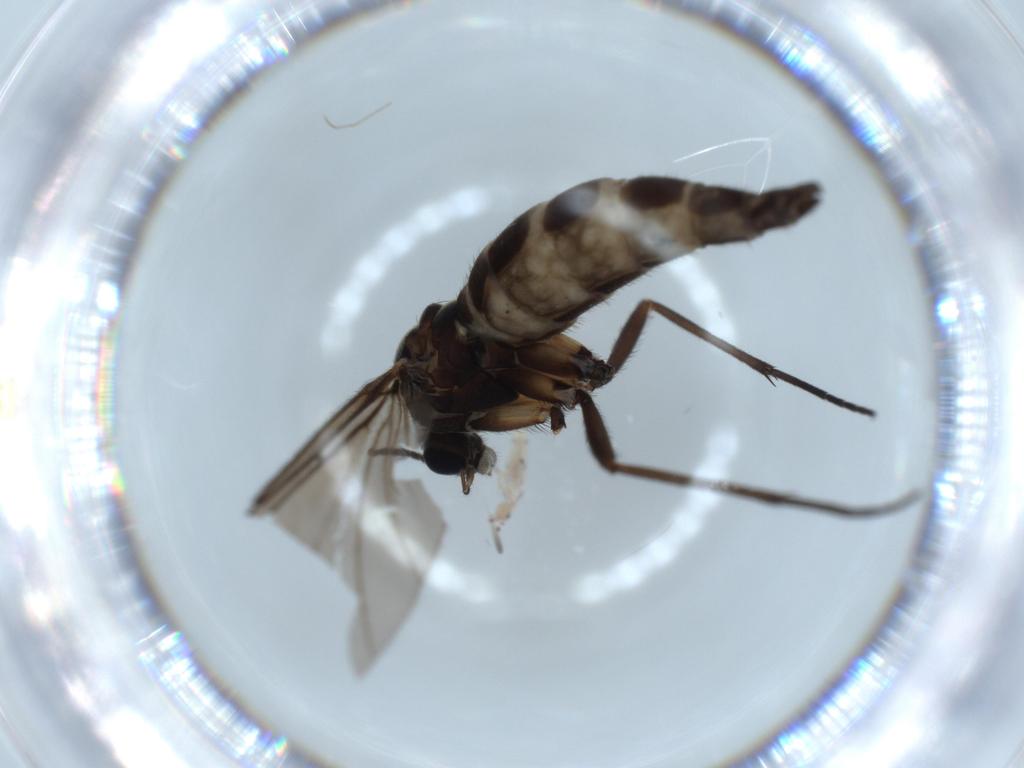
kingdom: Animalia
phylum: Arthropoda
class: Insecta
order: Diptera
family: Sciaridae
